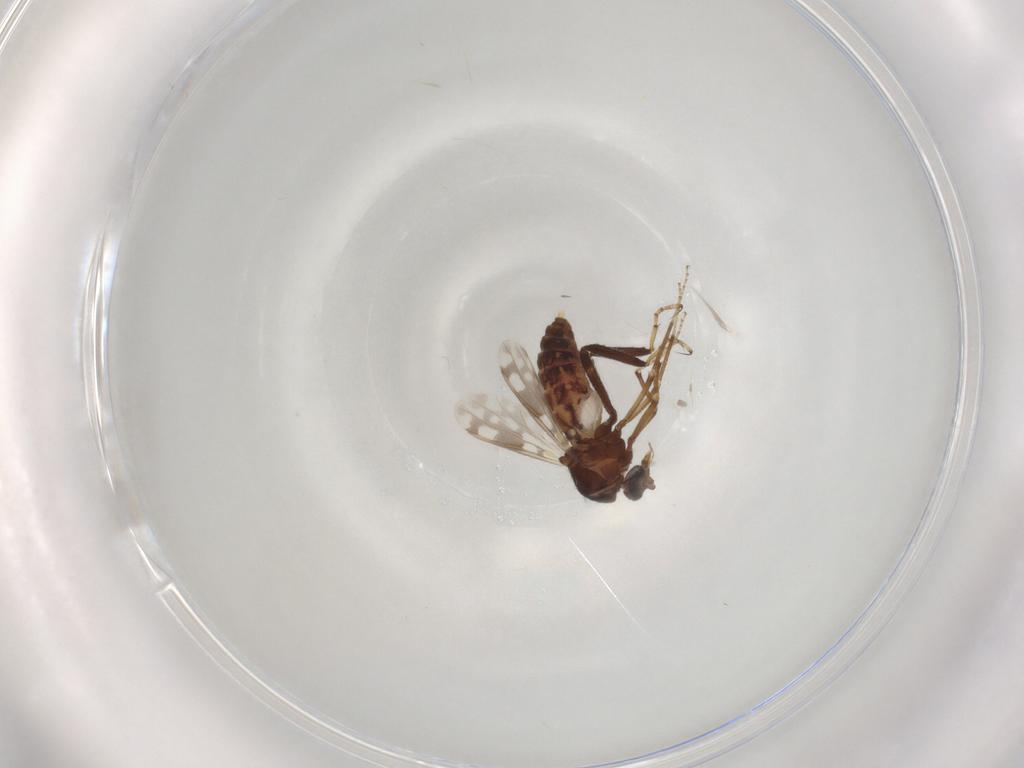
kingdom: Animalia
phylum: Arthropoda
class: Insecta
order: Diptera
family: Ceratopogonidae
